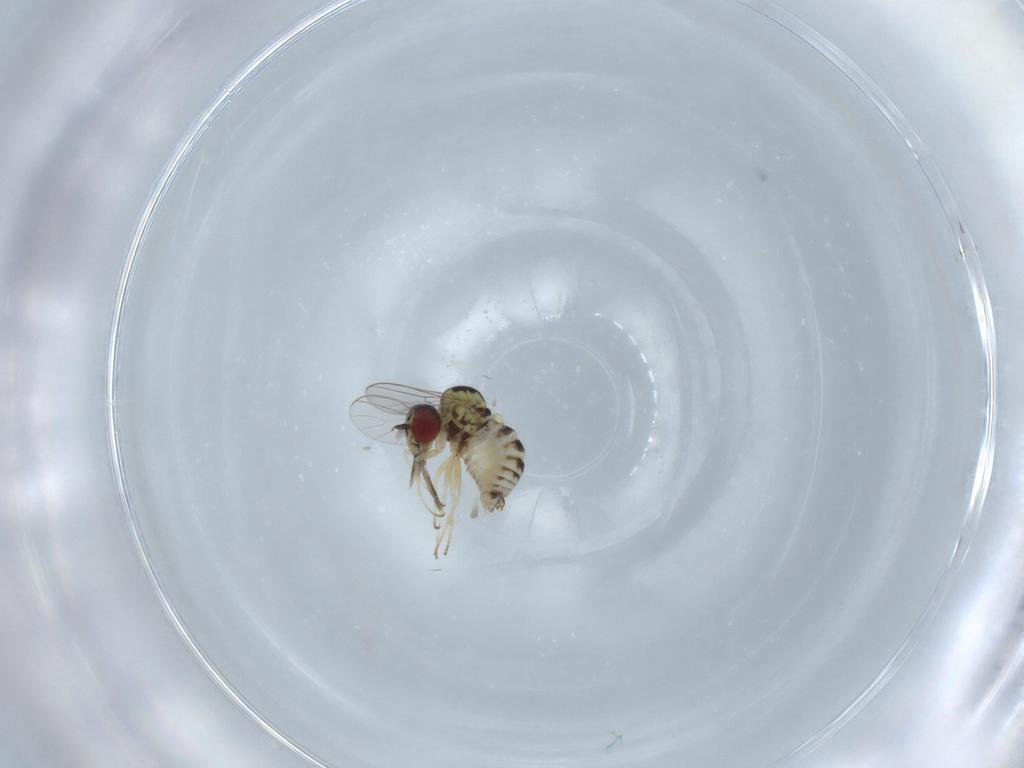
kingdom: Animalia
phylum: Arthropoda
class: Insecta
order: Diptera
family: Bombyliidae
